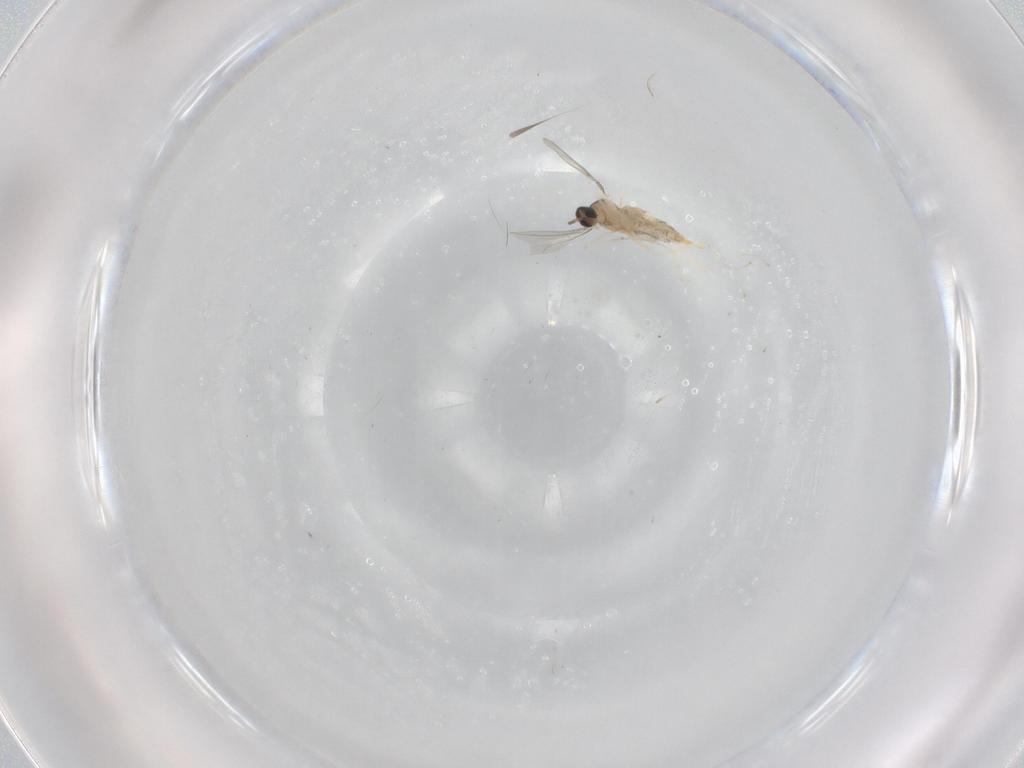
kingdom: Animalia
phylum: Arthropoda
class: Insecta
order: Diptera
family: Cecidomyiidae
